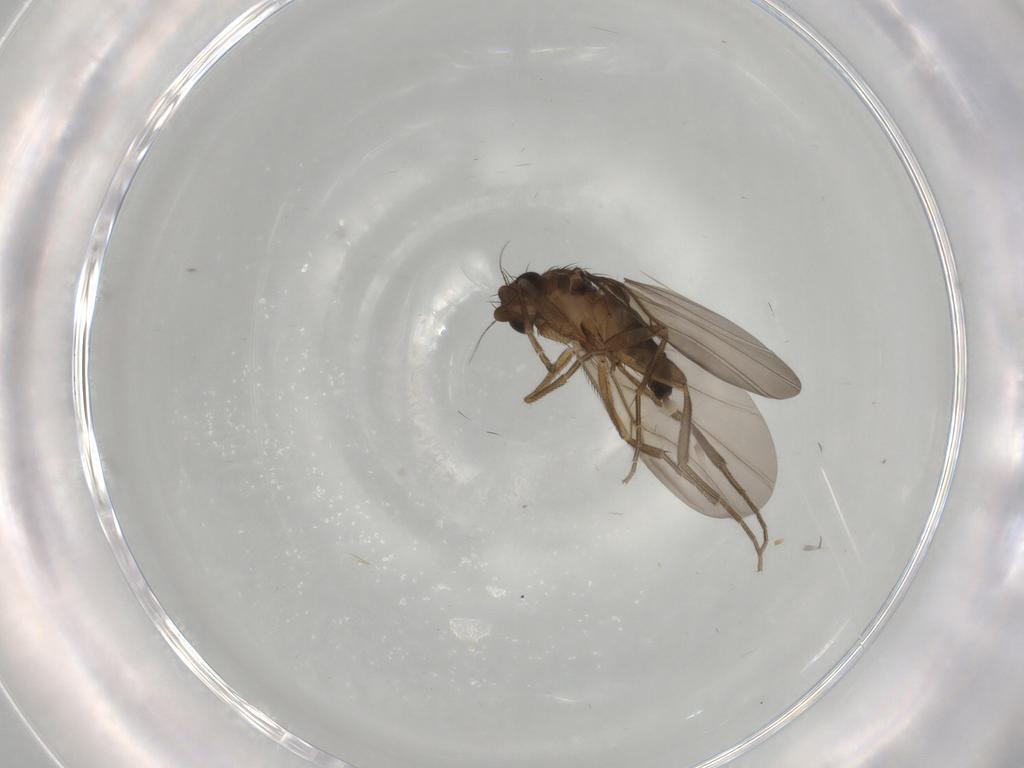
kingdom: Animalia
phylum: Arthropoda
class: Insecta
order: Diptera
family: Phoridae
